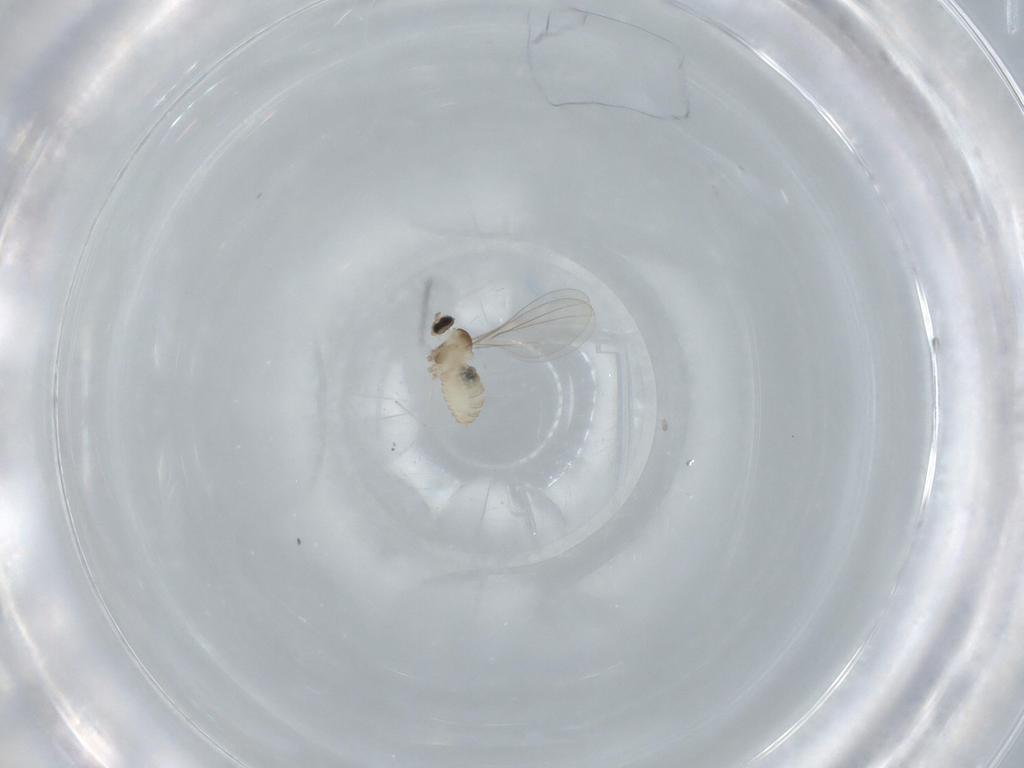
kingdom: Animalia
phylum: Arthropoda
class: Insecta
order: Diptera
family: Cecidomyiidae
